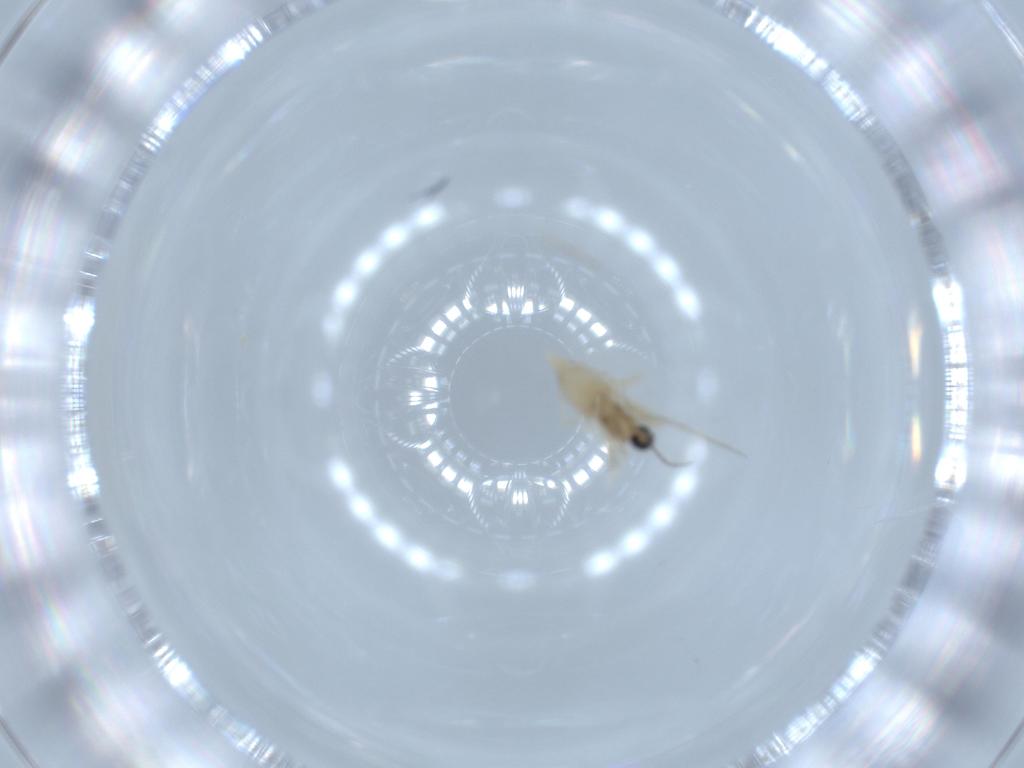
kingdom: Animalia
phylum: Arthropoda
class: Insecta
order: Diptera
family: Cecidomyiidae
